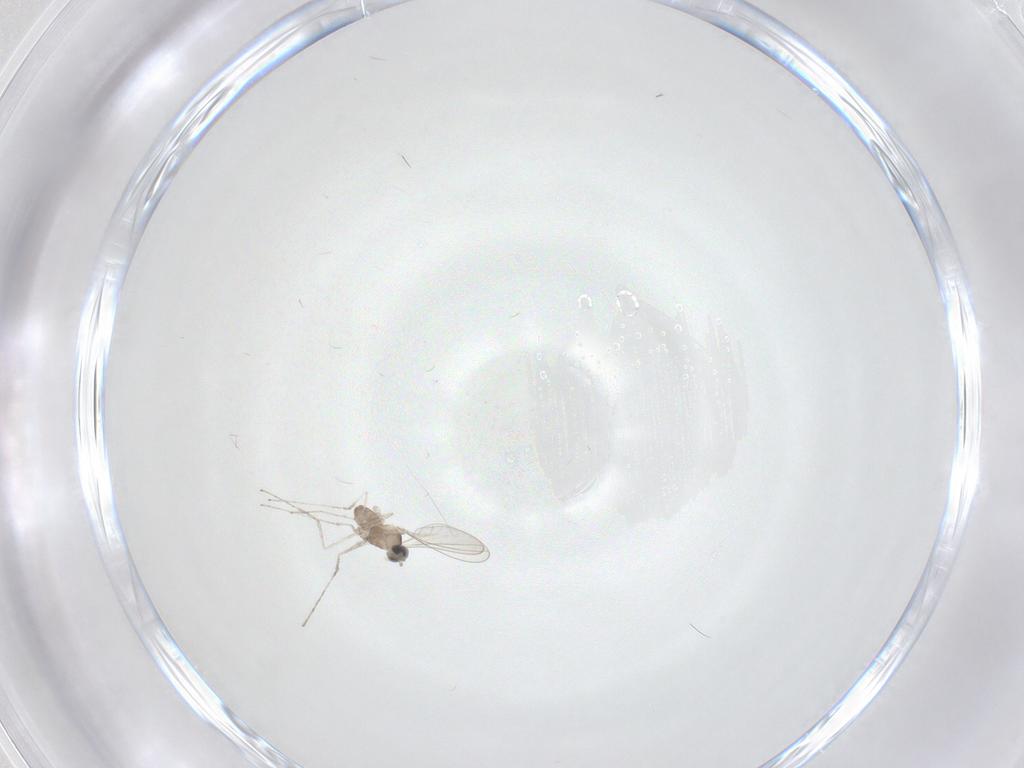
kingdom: Animalia
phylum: Arthropoda
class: Insecta
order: Diptera
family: Cecidomyiidae
